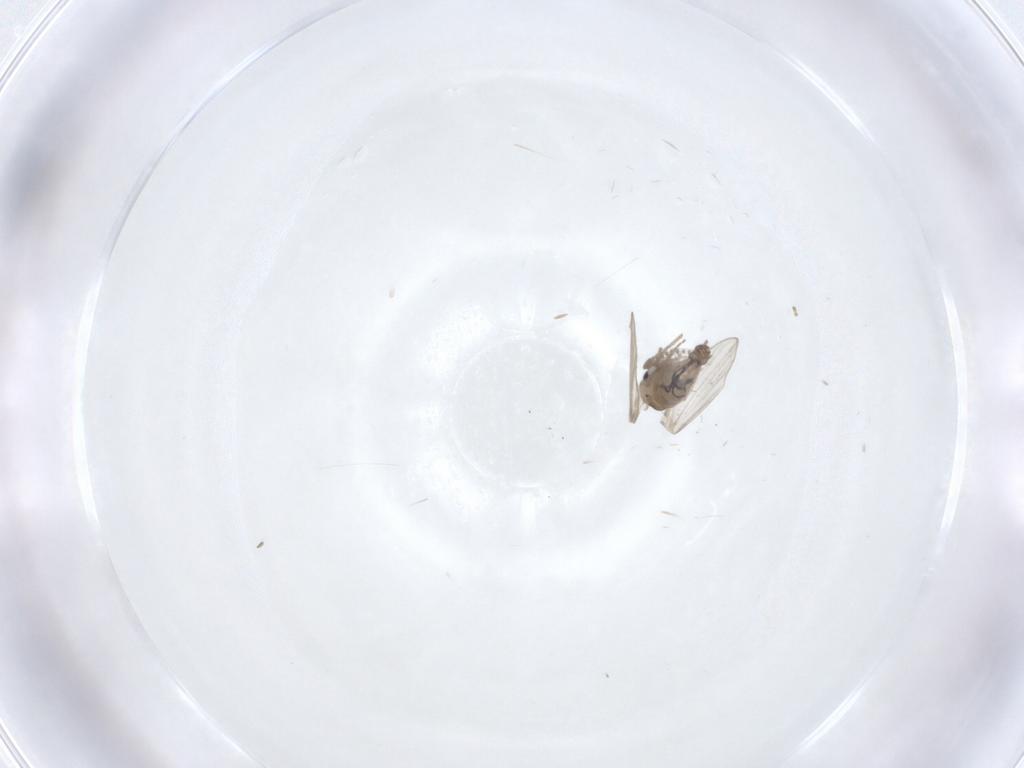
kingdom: Animalia
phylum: Arthropoda
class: Insecta
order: Diptera
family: Psychodidae
